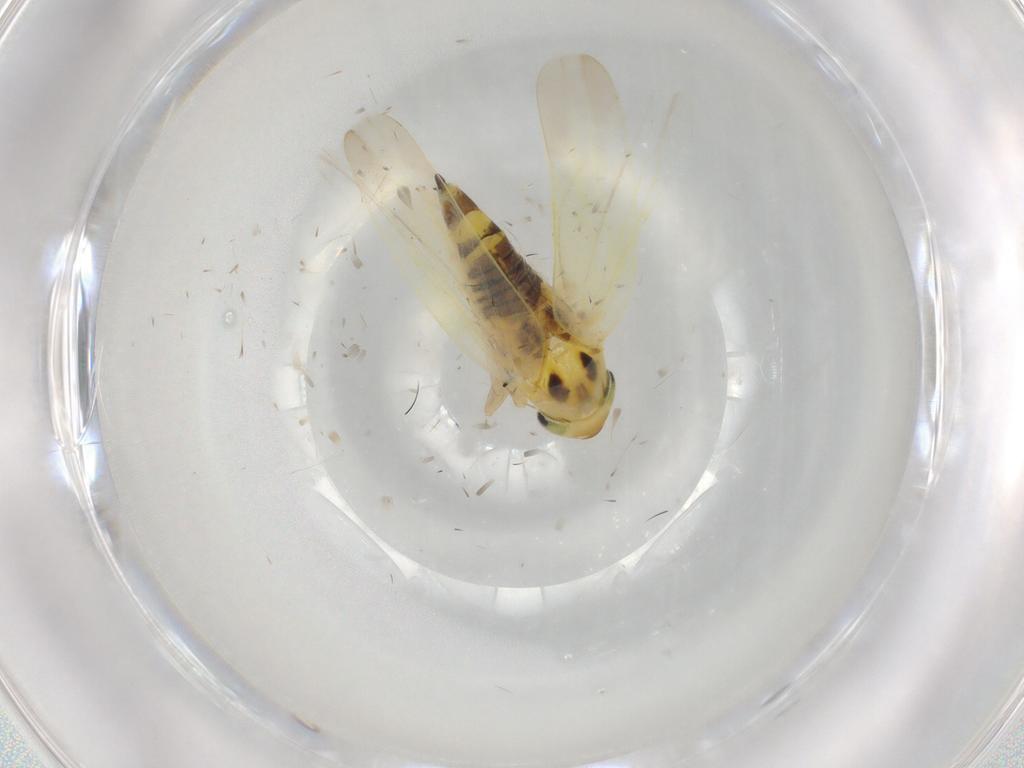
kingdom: Animalia
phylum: Arthropoda
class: Insecta
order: Hemiptera
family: Cicadellidae
